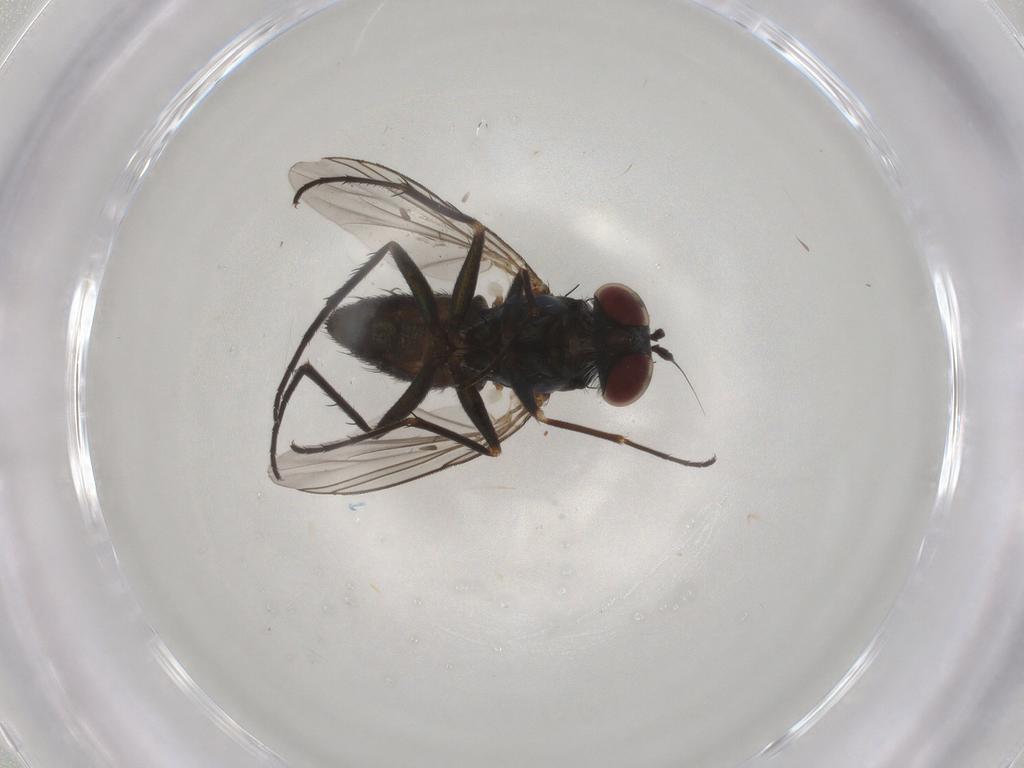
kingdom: Animalia
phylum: Arthropoda
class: Insecta
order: Diptera
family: Dolichopodidae
